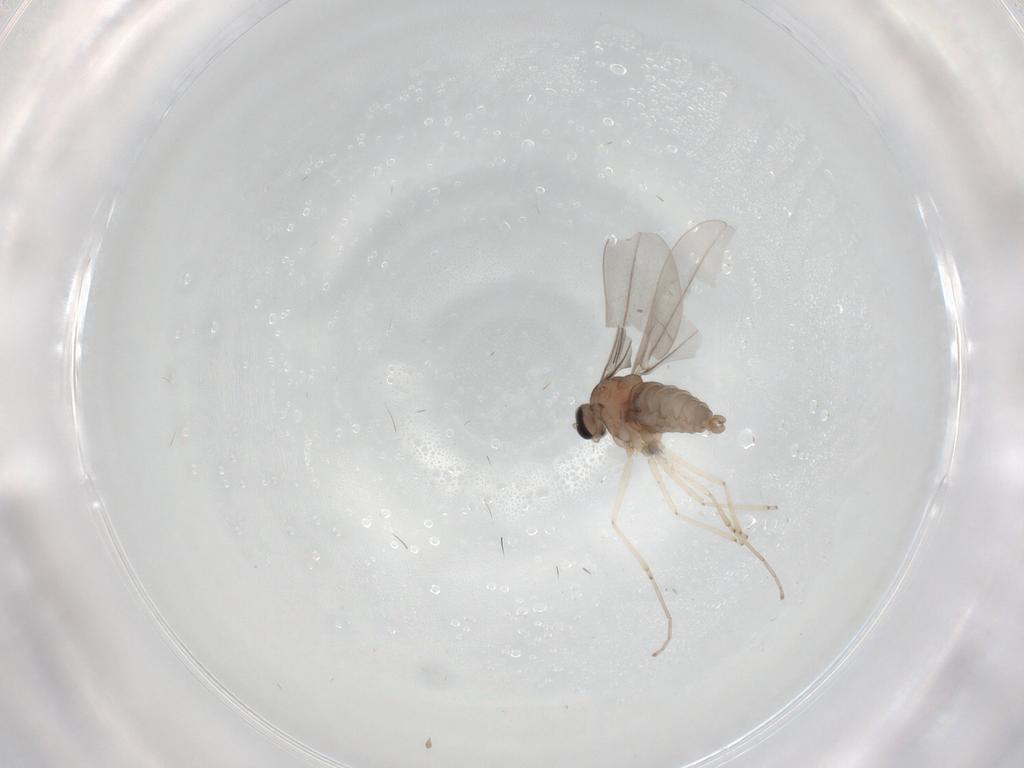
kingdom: Animalia
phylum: Arthropoda
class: Insecta
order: Diptera
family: Cecidomyiidae
